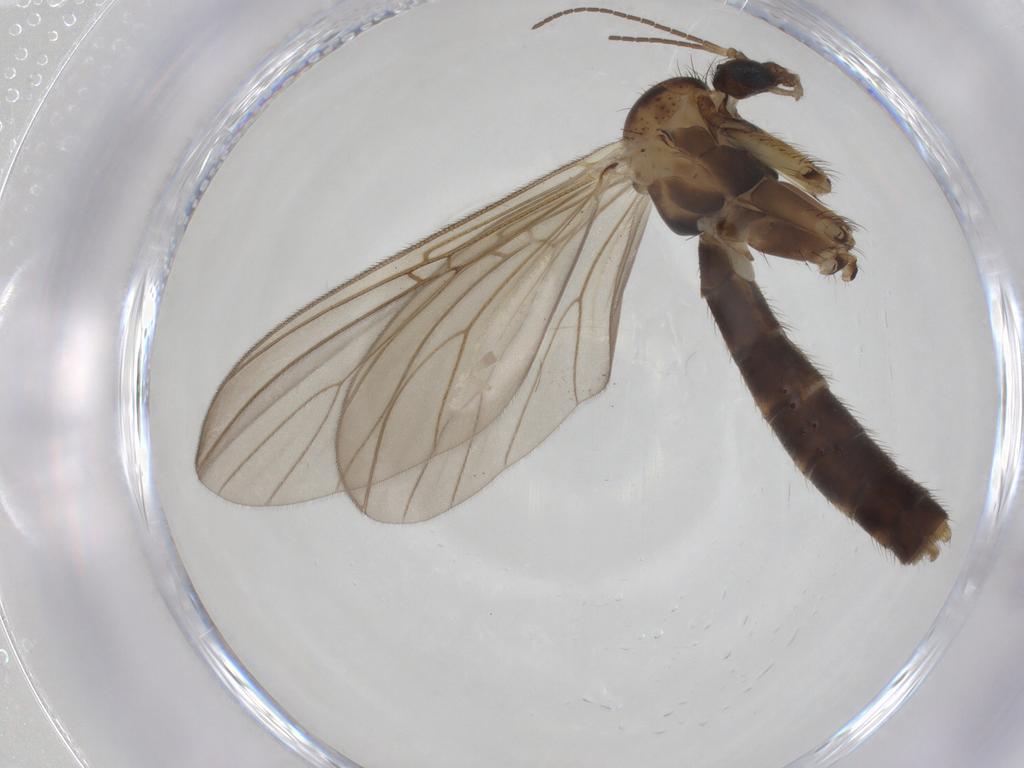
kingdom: Animalia
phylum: Arthropoda
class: Insecta
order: Diptera
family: Mycetophilidae
